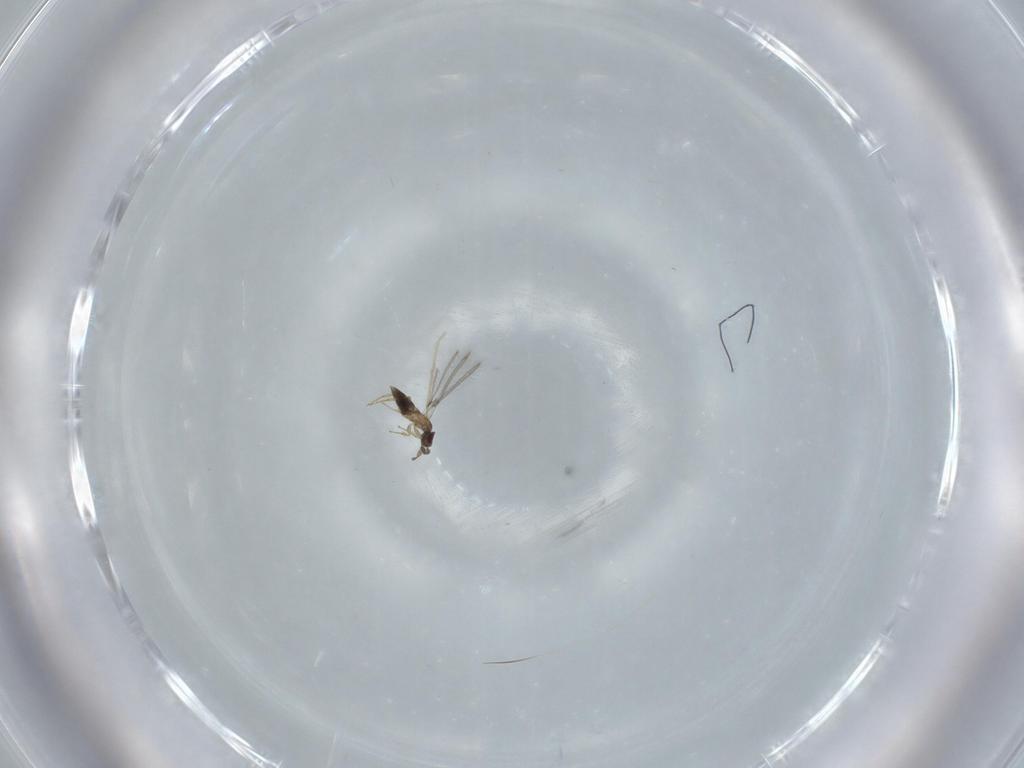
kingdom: Animalia
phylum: Arthropoda
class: Insecta
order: Hymenoptera
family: Mymaridae
